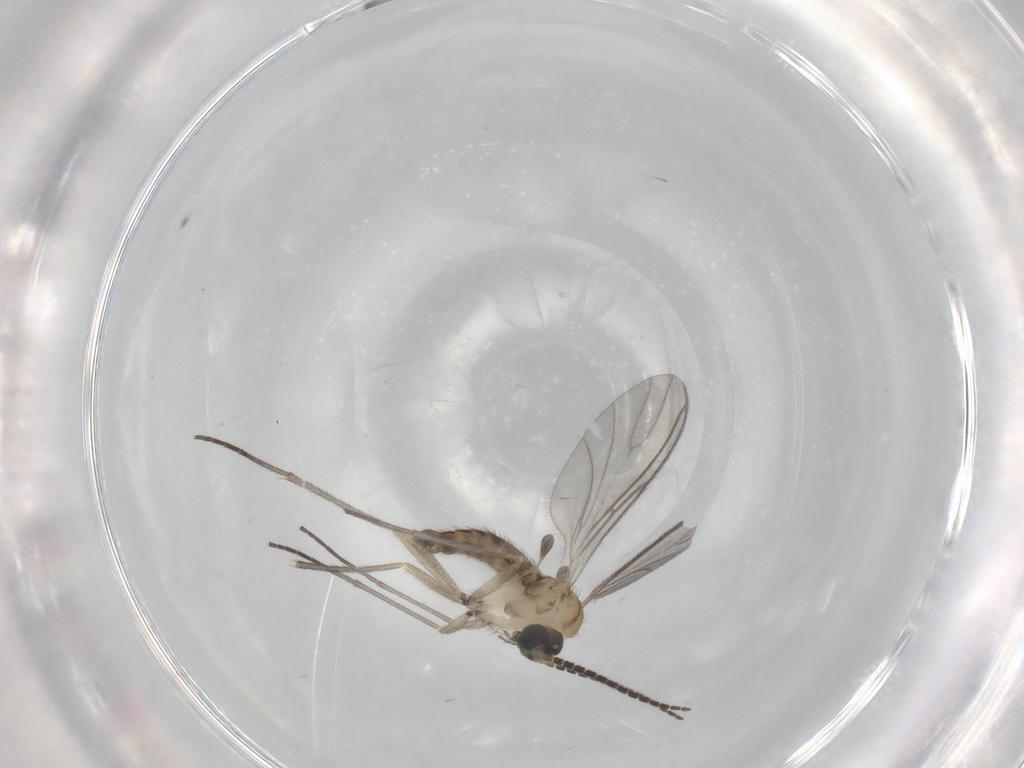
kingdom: Animalia
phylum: Arthropoda
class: Insecta
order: Diptera
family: Sciaridae
